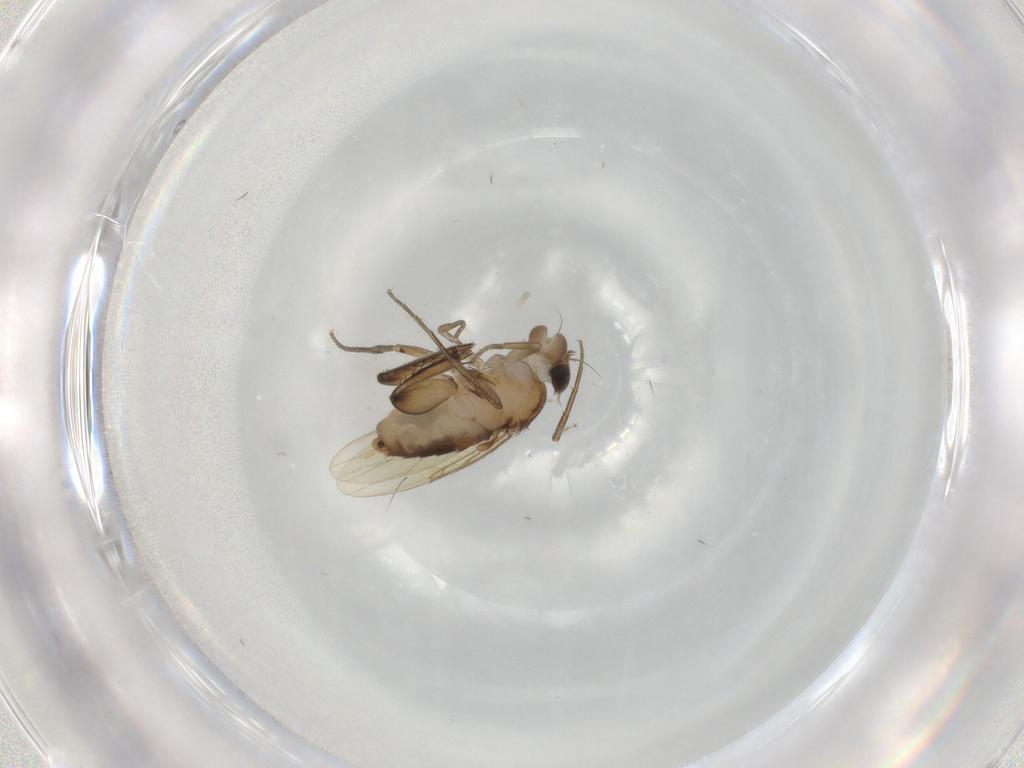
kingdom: Animalia
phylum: Arthropoda
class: Insecta
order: Diptera
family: Phoridae
